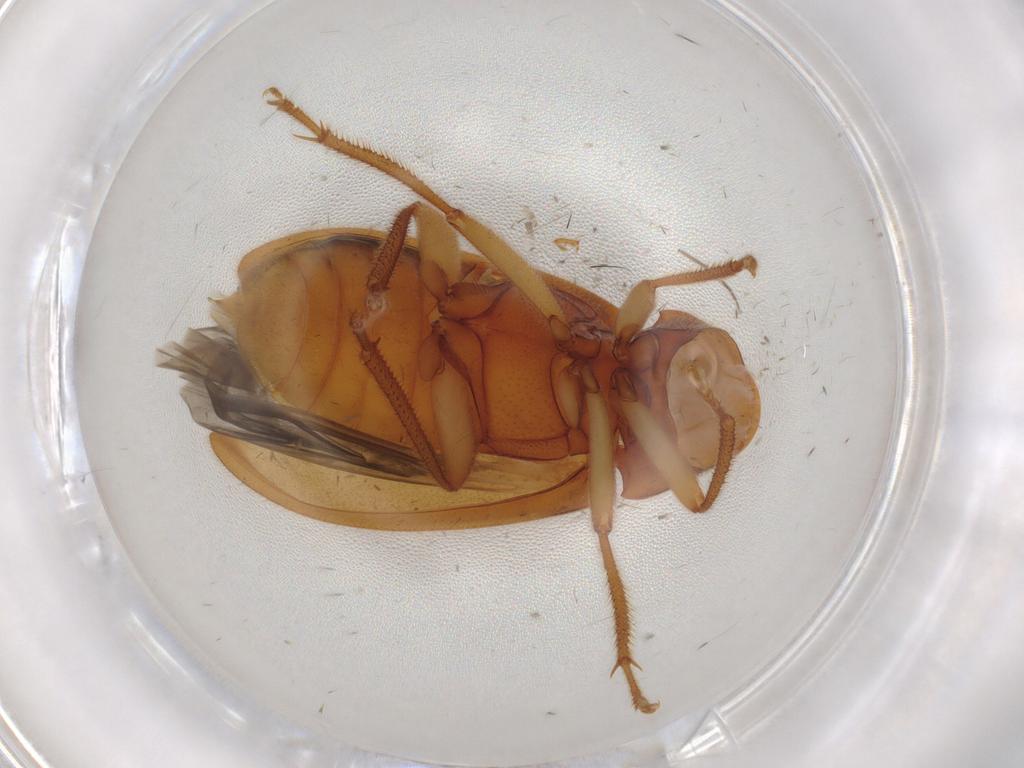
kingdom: Animalia
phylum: Arthropoda
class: Insecta
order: Coleoptera
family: Ptilodactylidae
